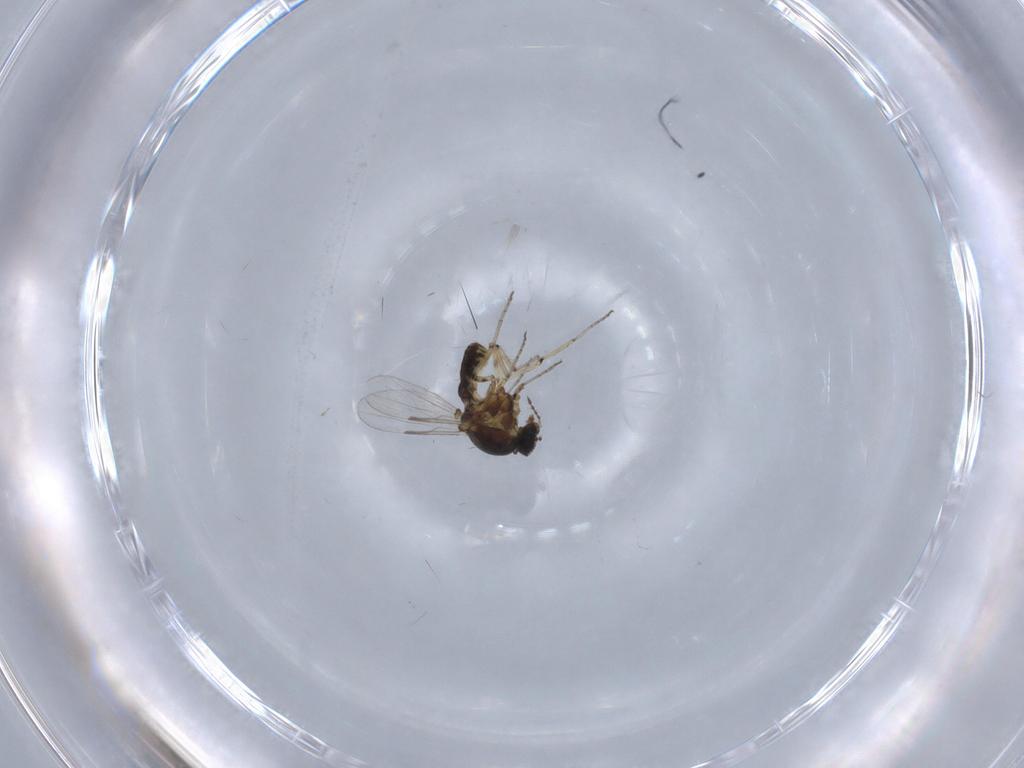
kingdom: Animalia
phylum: Arthropoda
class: Insecta
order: Diptera
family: Ceratopogonidae
